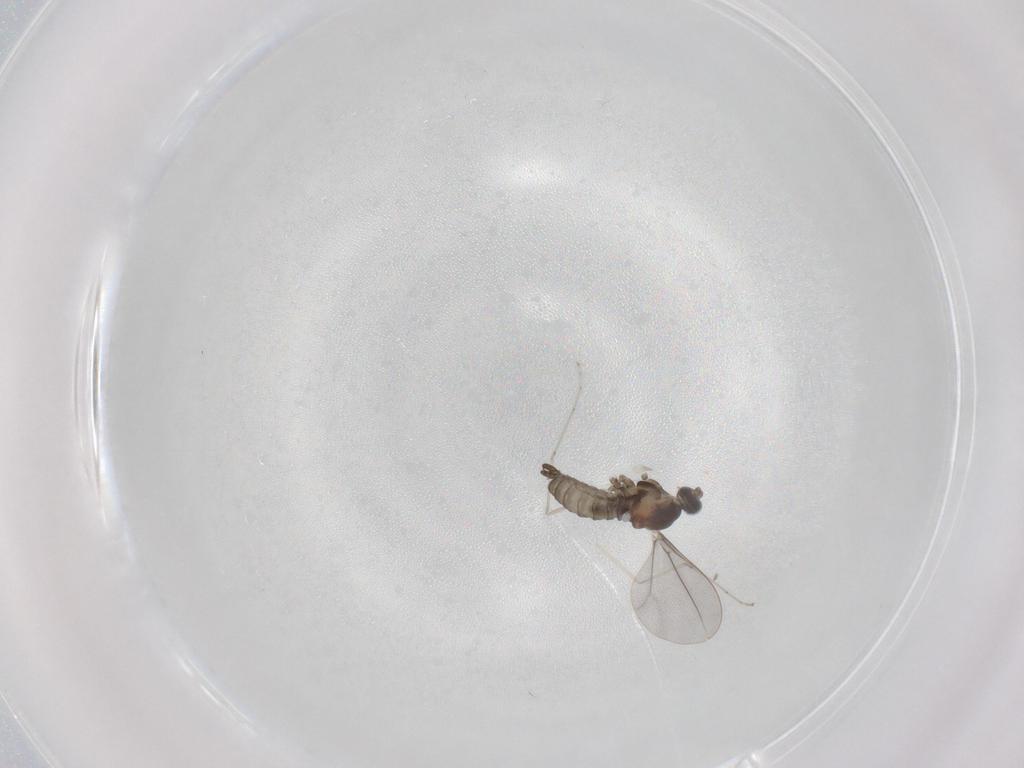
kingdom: Animalia
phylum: Arthropoda
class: Insecta
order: Diptera
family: Cecidomyiidae
